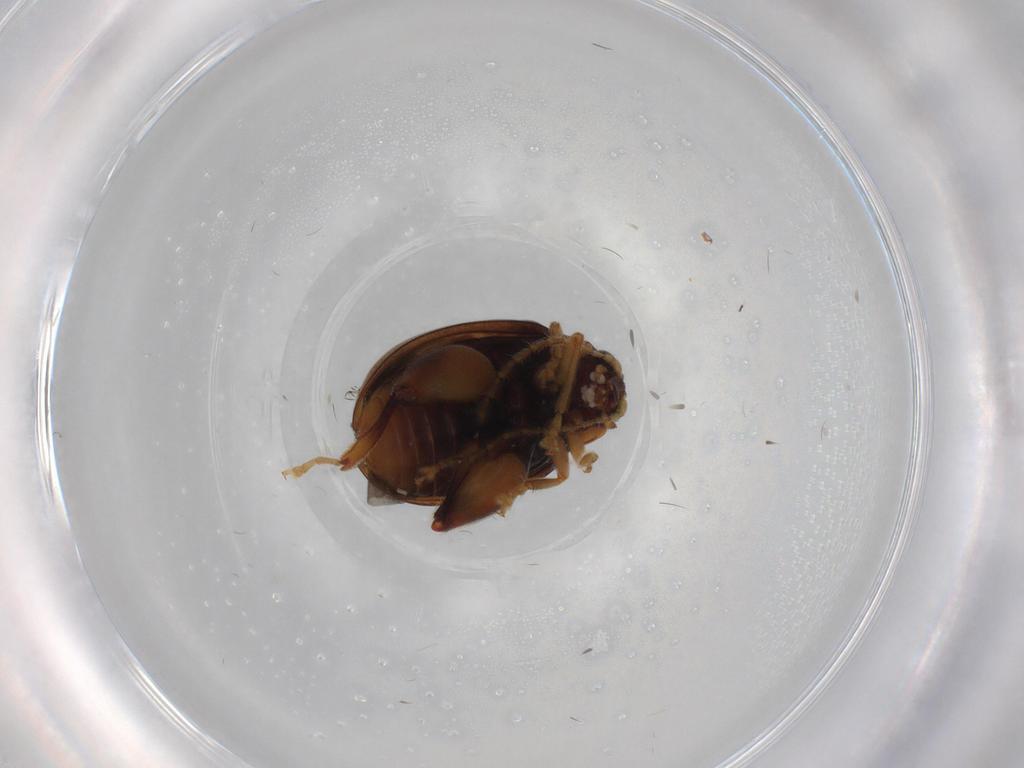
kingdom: Animalia
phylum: Arthropoda
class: Insecta
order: Coleoptera
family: Chrysomelidae
